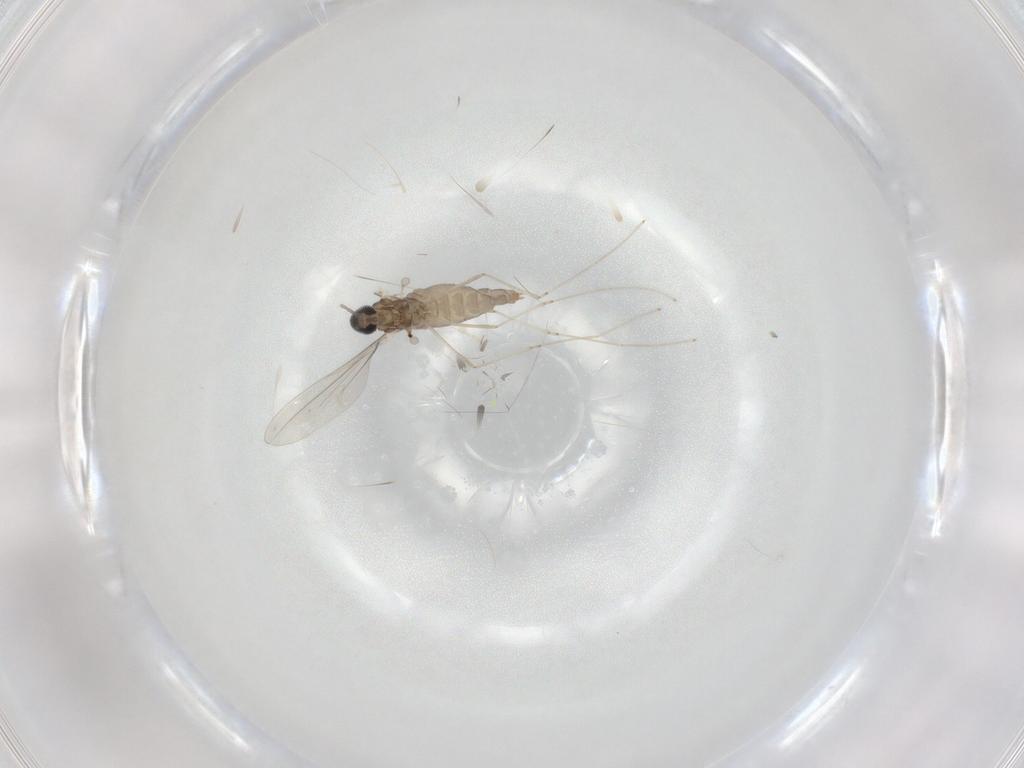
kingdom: Animalia
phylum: Arthropoda
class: Insecta
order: Diptera
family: Cecidomyiidae
